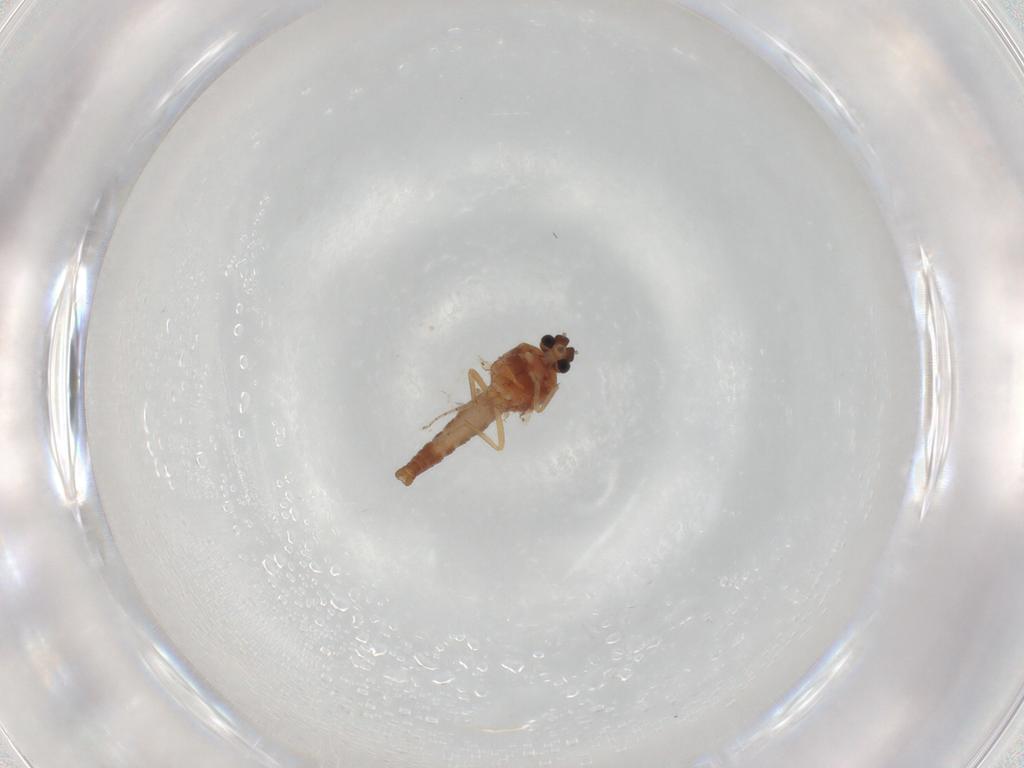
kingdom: Animalia
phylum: Arthropoda
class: Insecta
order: Diptera
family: Ceratopogonidae
